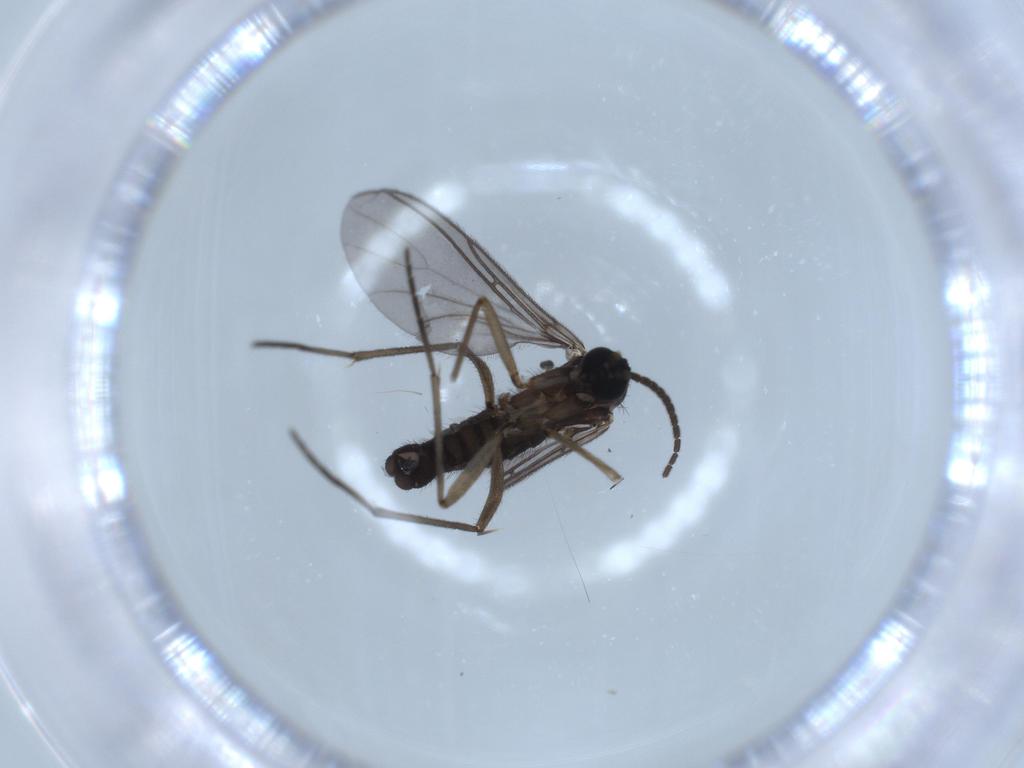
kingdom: Animalia
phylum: Arthropoda
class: Insecta
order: Diptera
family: Sciaridae
